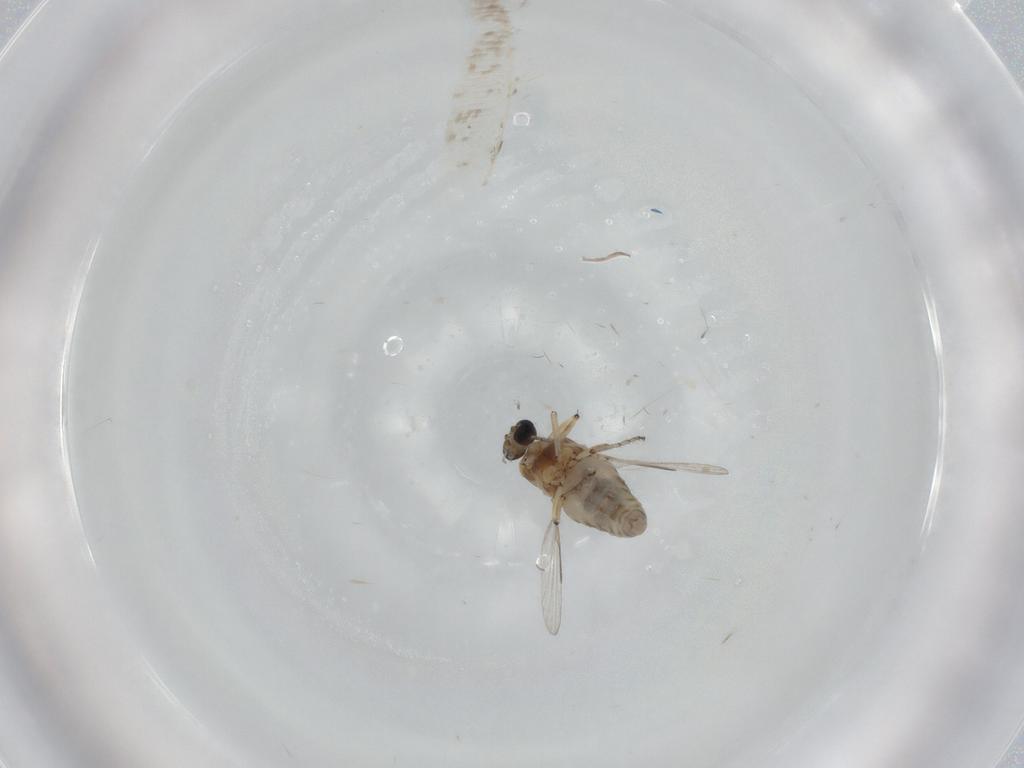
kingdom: Animalia
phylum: Arthropoda
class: Insecta
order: Diptera
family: Ceratopogonidae
